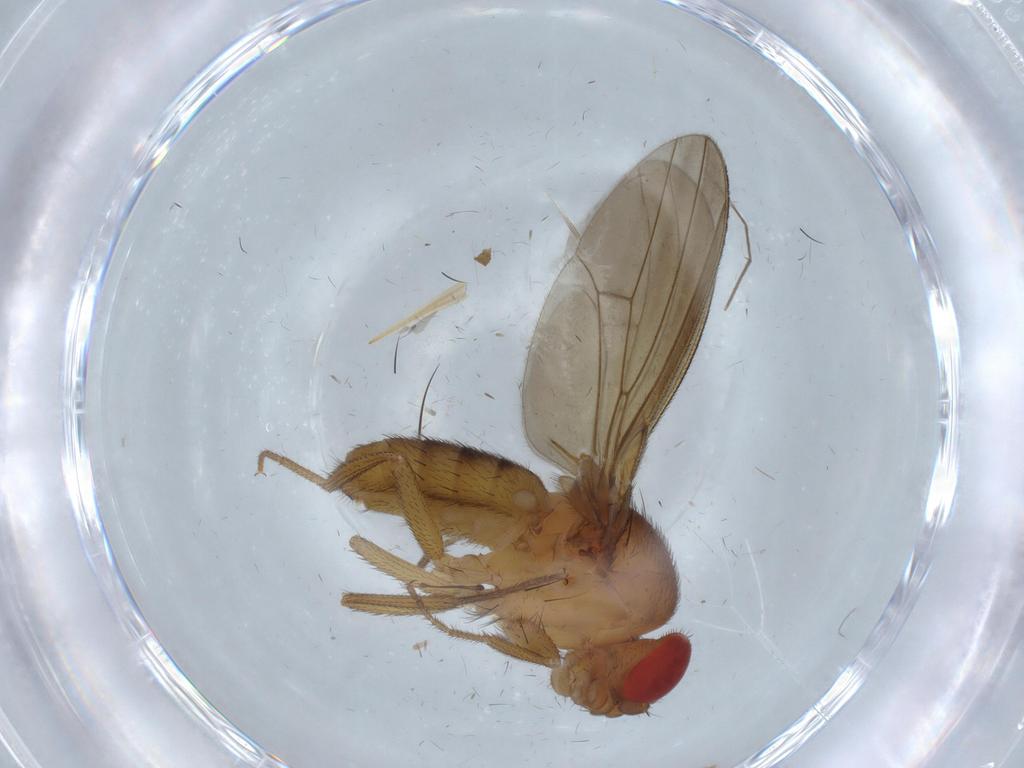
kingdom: Animalia
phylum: Arthropoda
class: Insecta
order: Diptera
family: Drosophilidae
